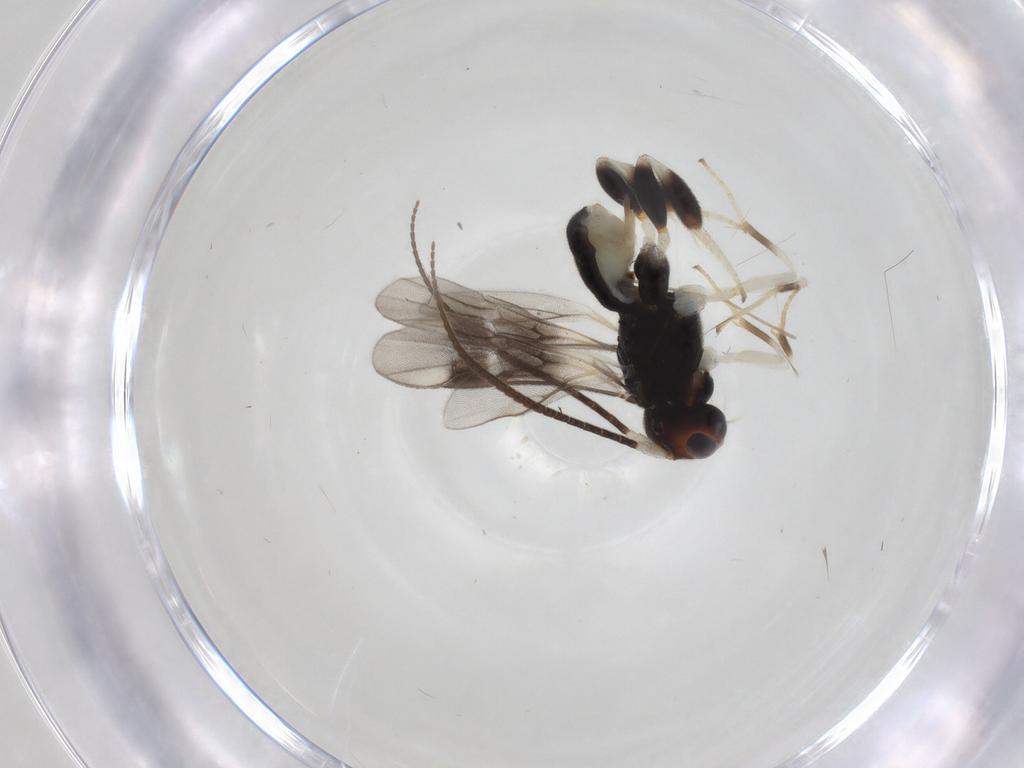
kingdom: Animalia
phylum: Arthropoda
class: Insecta
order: Hymenoptera
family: Braconidae
